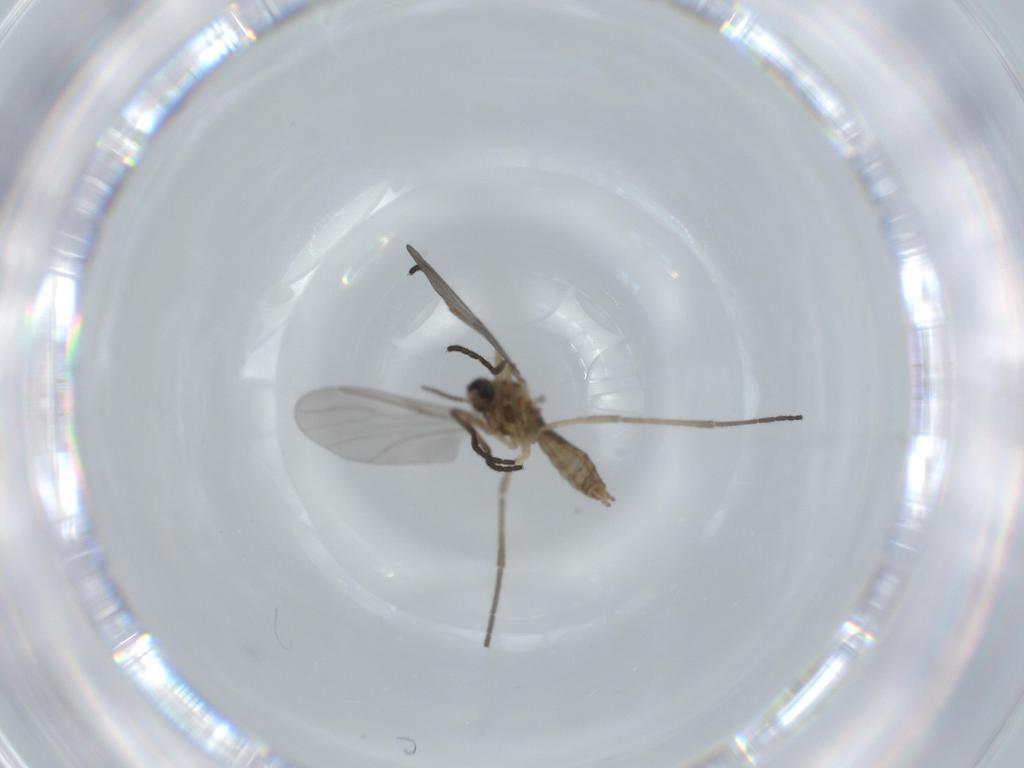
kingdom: Animalia
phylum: Arthropoda
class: Insecta
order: Diptera
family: Cecidomyiidae
